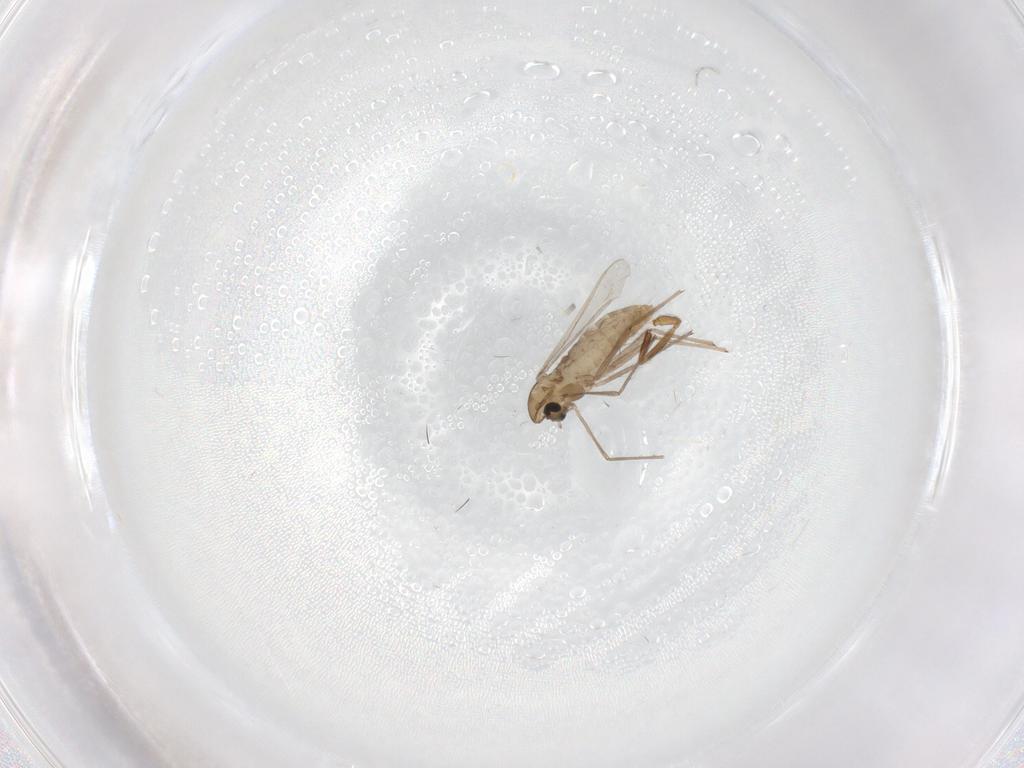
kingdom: Animalia
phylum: Arthropoda
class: Insecta
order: Diptera
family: Chironomidae
